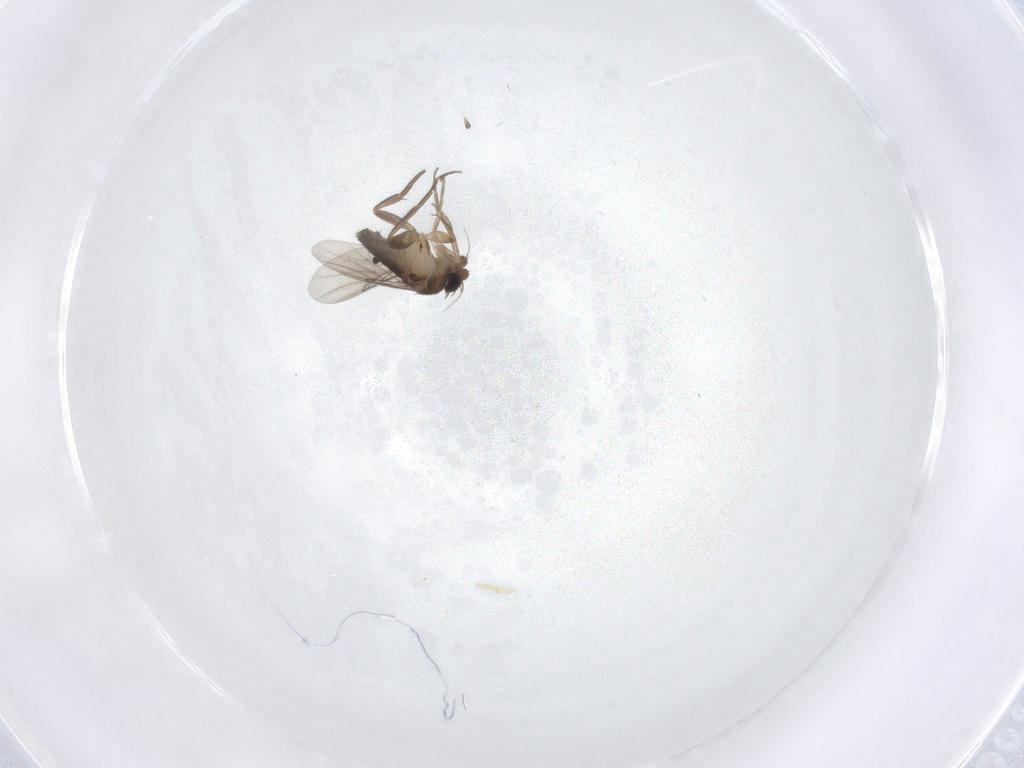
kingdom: Animalia
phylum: Arthropoda
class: Insecta
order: Diptera
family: Phoridae
